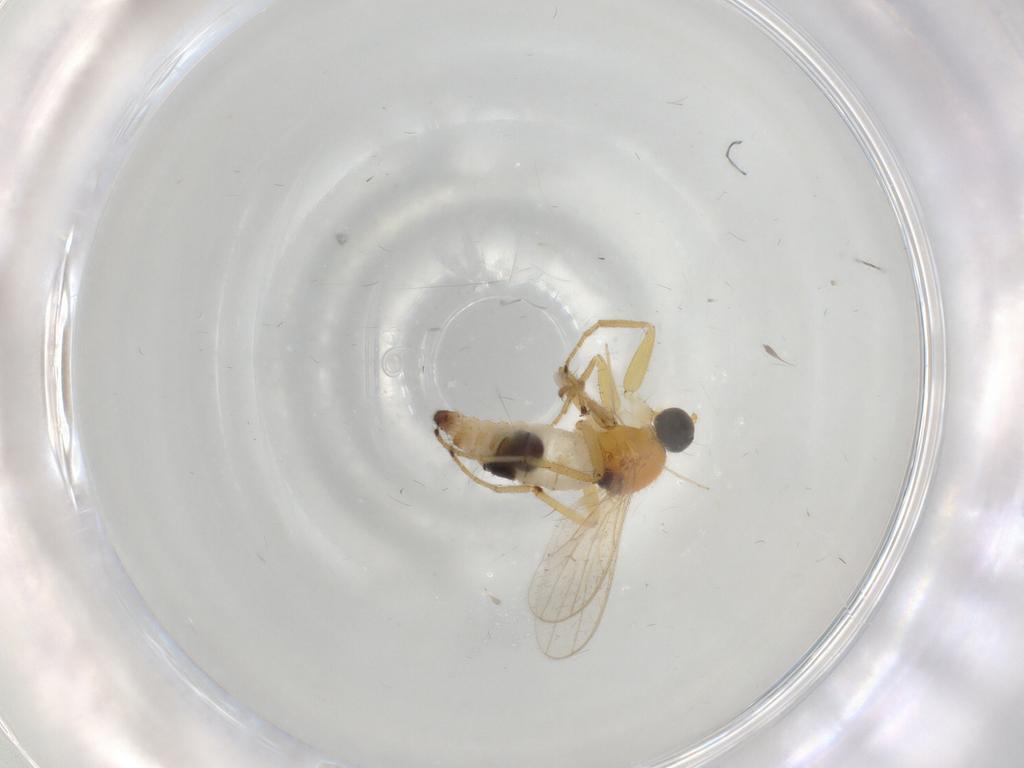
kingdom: Animalia
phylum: Arthropoda
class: Insecta
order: Diptera
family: Hybotidae
